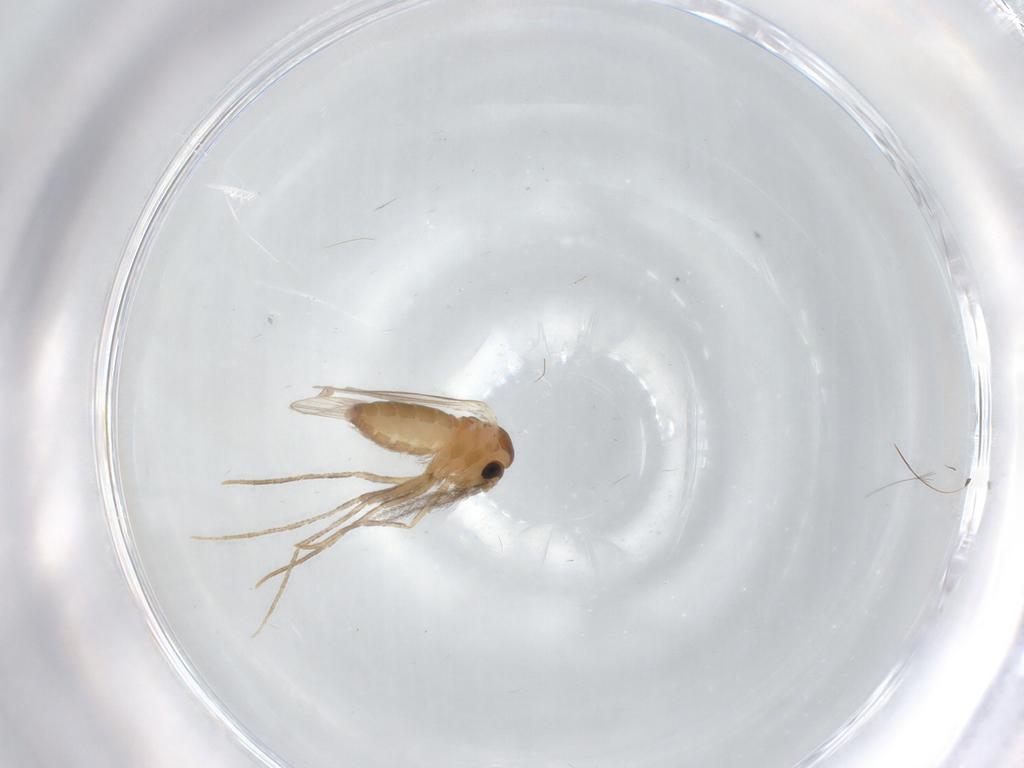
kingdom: Animalia
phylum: Arthropoda
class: Insecta
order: Diptera
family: Psychodidae
